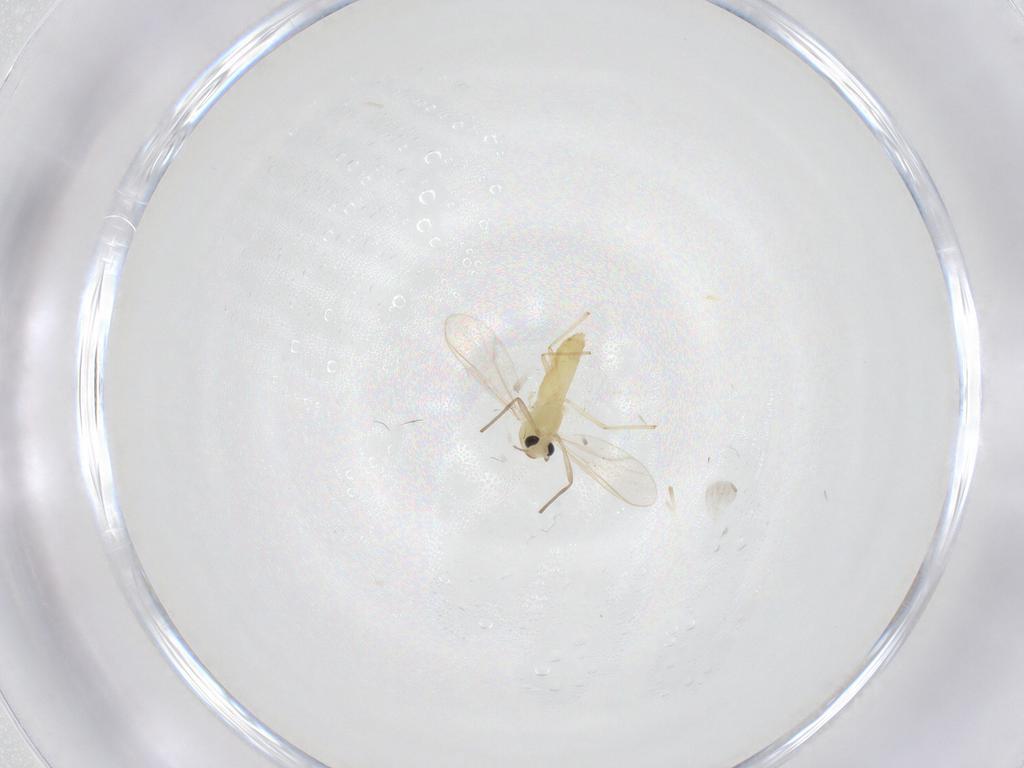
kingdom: Animalia
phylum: Arthropoda
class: Insecta
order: Diptera
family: Chironomidae
